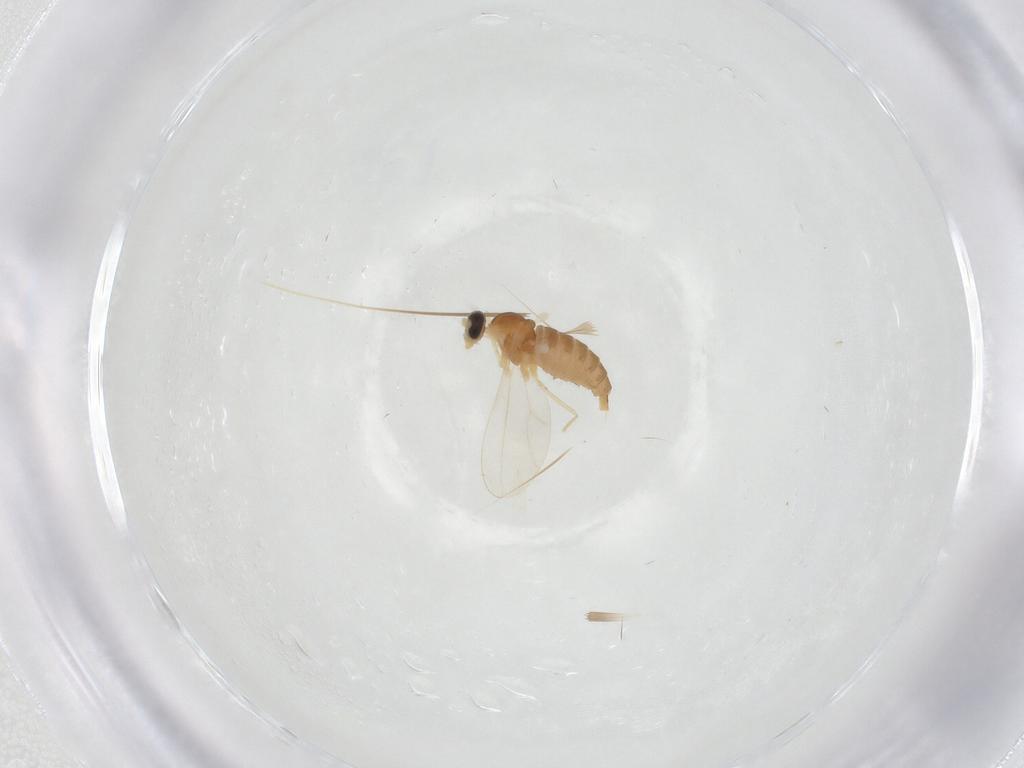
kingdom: Animalia
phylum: Arthropoda
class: Insecta
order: Diptera
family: Cecidomyiidae
